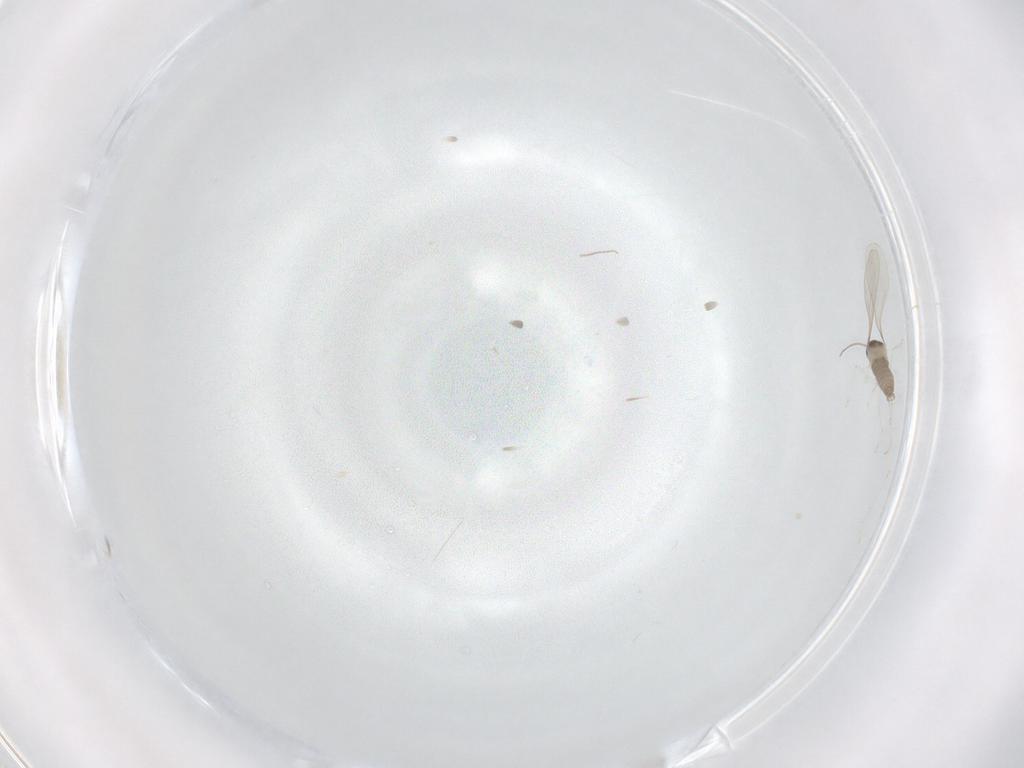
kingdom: Animalia
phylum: Arthropoda
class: Insecta
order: Diptera
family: Cecidomyiidae
